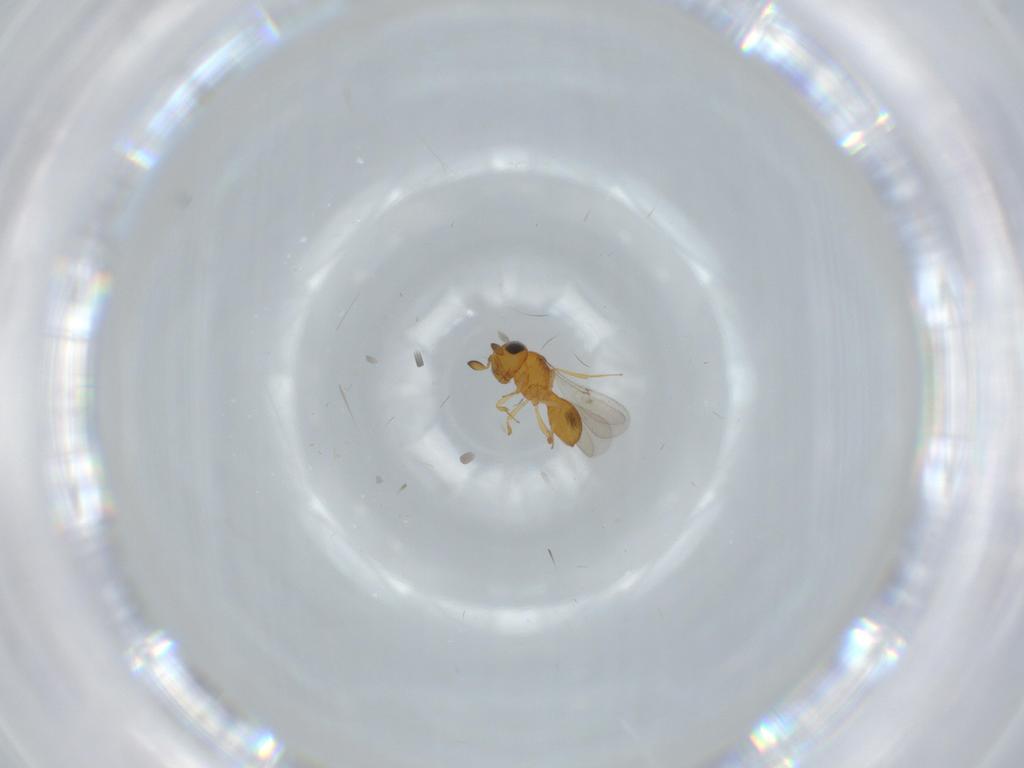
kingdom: Animalia
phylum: Arthropoda
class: Insecta
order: Hymenoptera
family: Scelionidae
